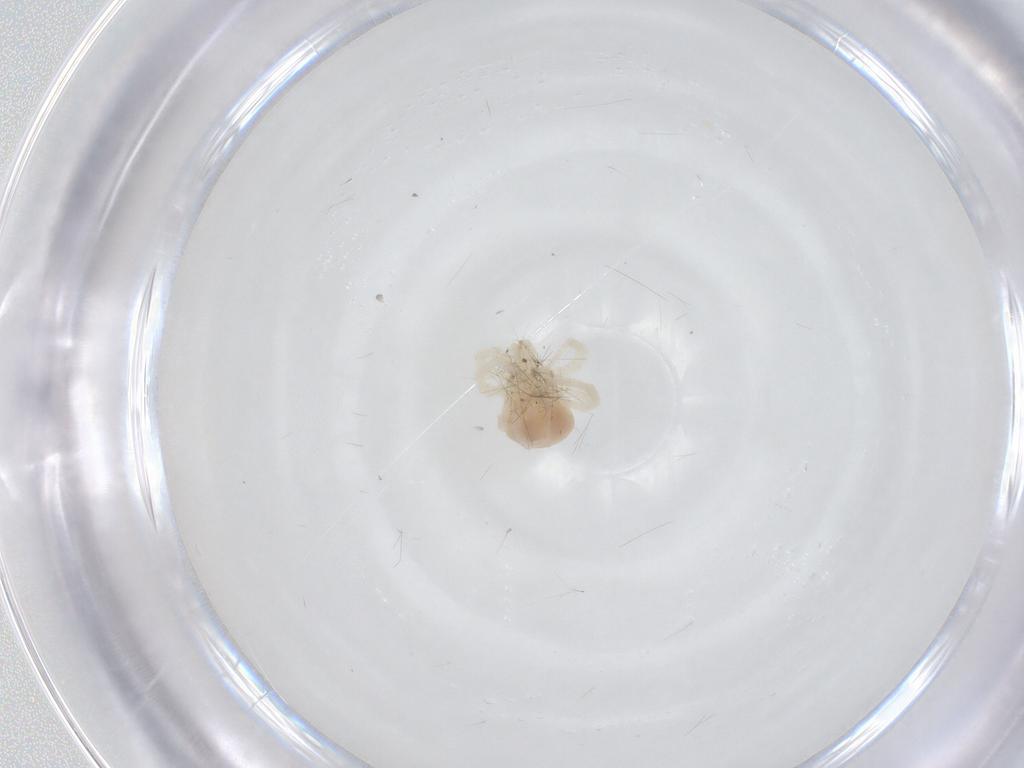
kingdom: Animalia
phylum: Arthropoda
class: Arachnida
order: Trombidiformes
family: Anystidae
